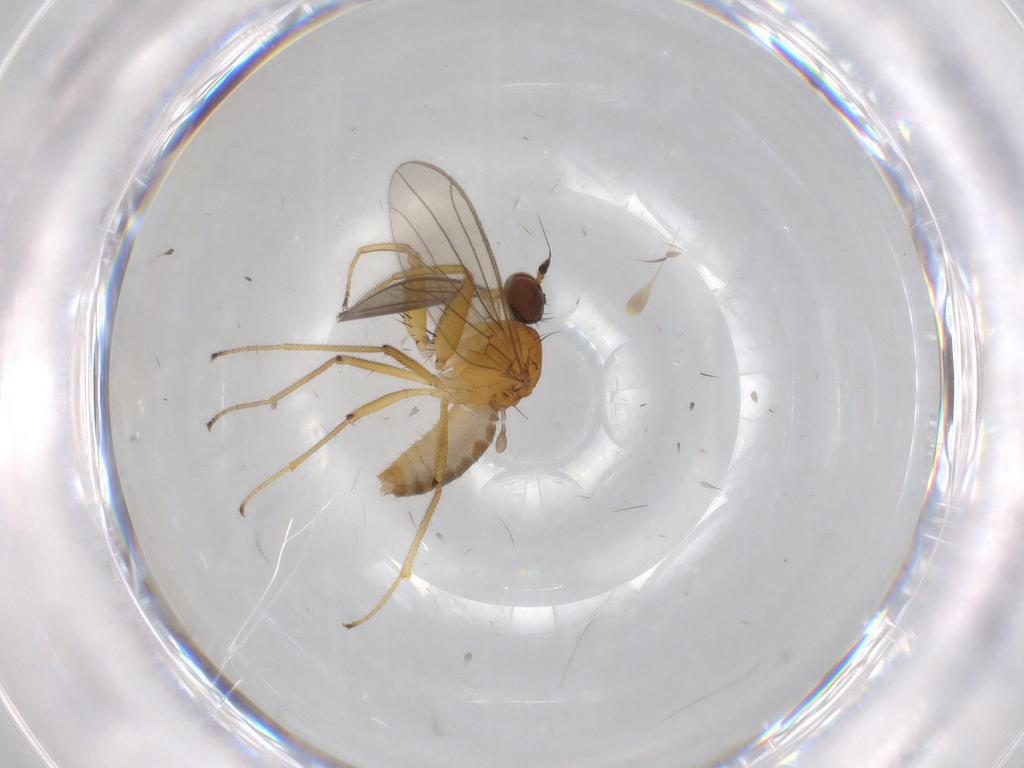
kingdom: Animalia
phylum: Arthropoda
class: Insecta
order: Diptera
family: Empididae
